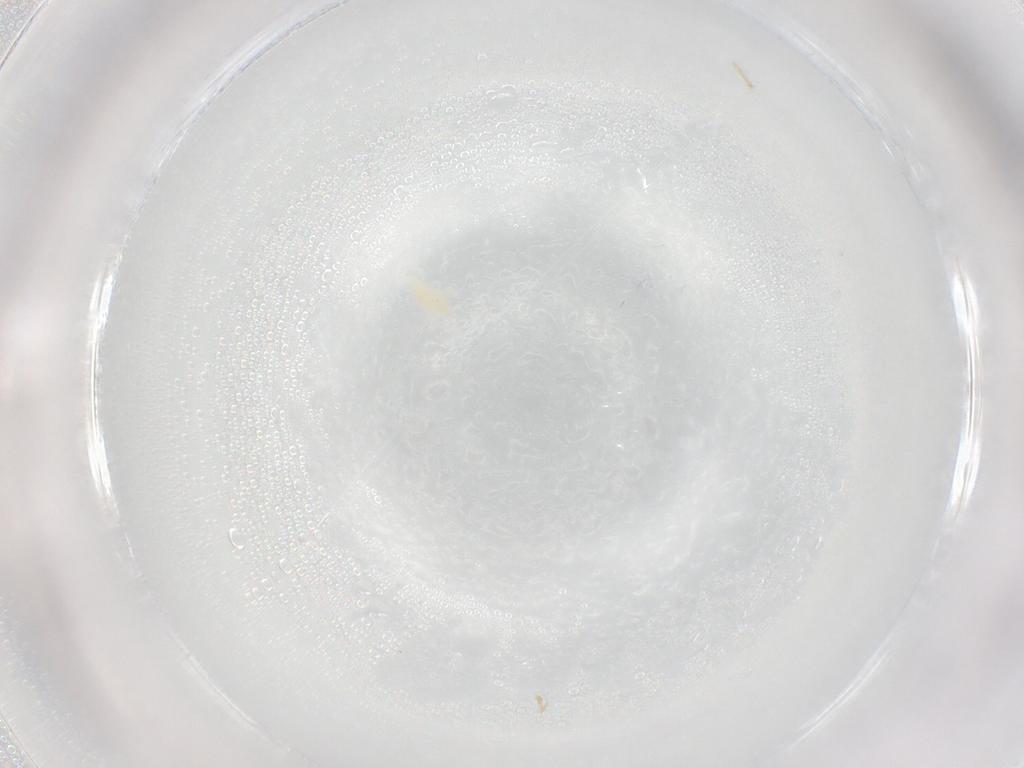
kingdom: Animalia
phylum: Arthropoda
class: Arachnida
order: Trombidiformes
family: Eupodidae
